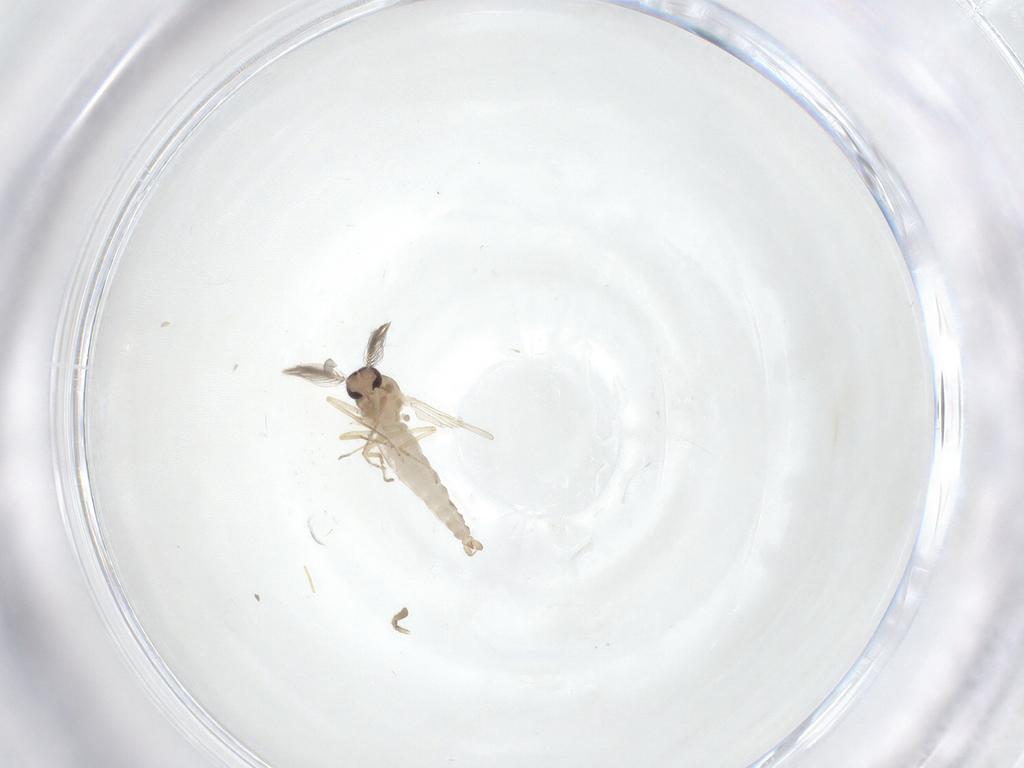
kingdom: Animalia
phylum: Arthropoda
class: Insecta
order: Diptera
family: Ceratopogonidae
